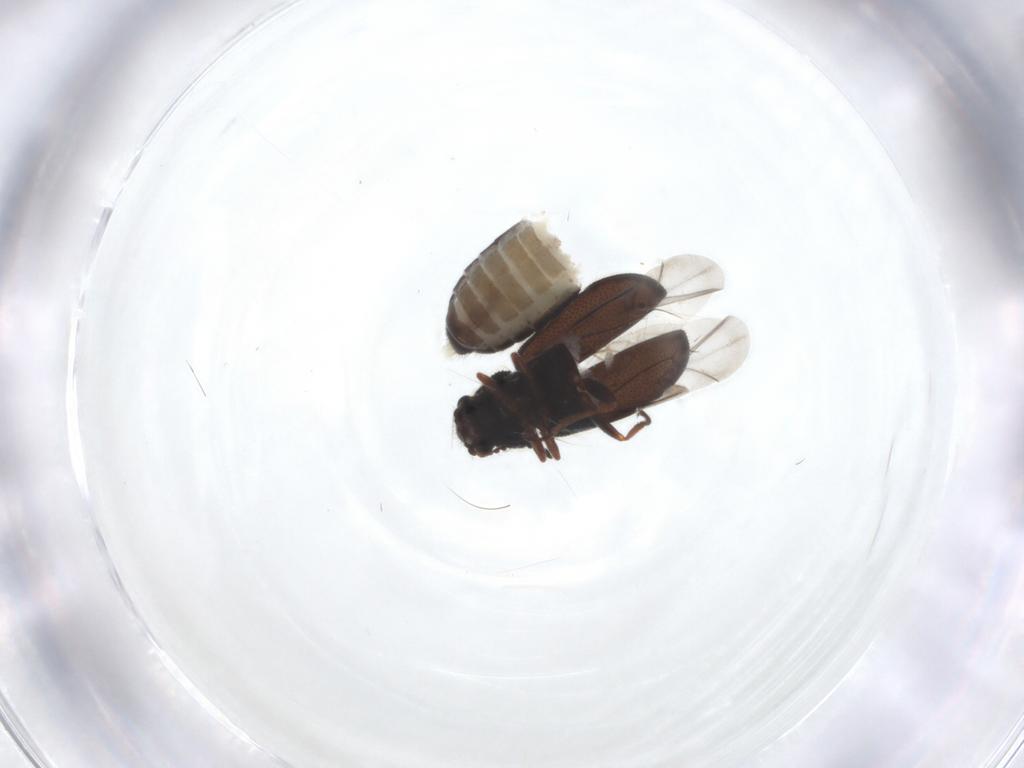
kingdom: Animalia
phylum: Arthropoda
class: Insecta
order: Coleoptera
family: Melyridae
